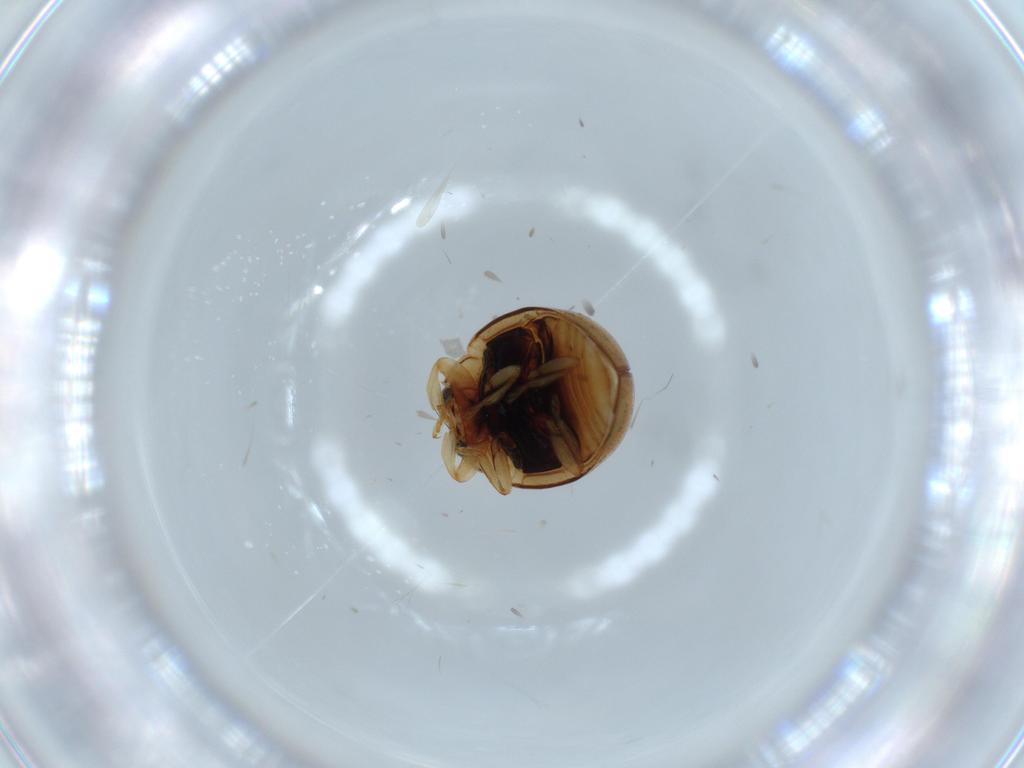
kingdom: Animalia
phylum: Arthropoda
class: Insecta
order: Coleoptera
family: Coccinellidae
